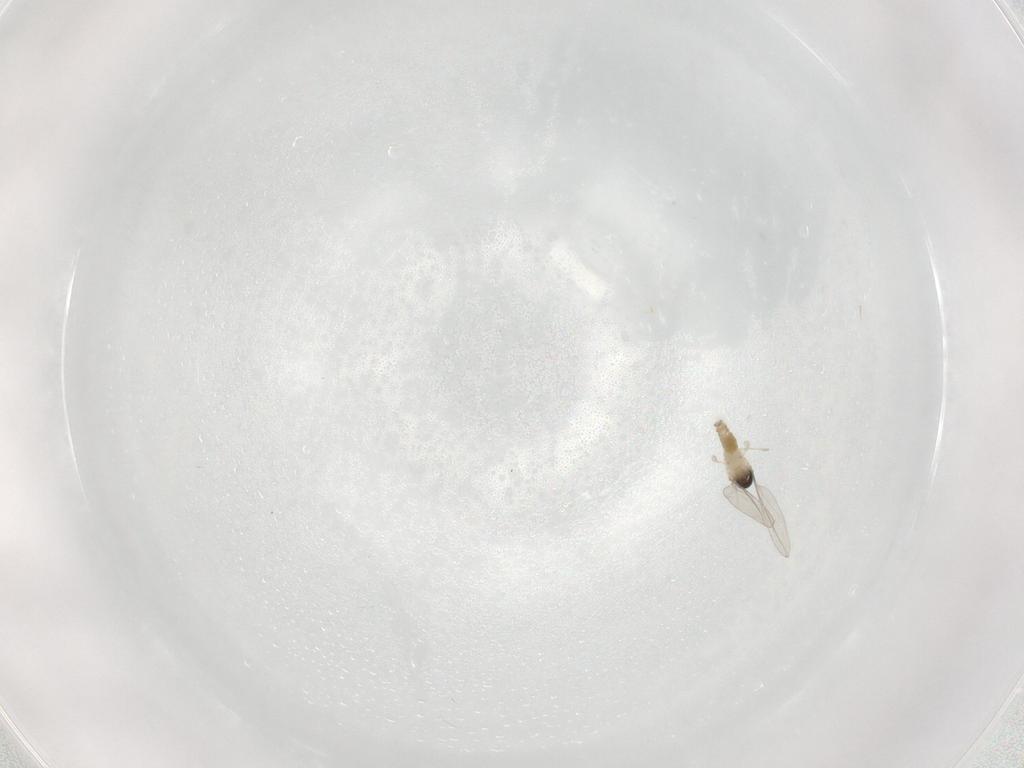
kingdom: Animalia
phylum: Arthropoda
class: Insecta
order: Diptera
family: Cecidomyiidae
